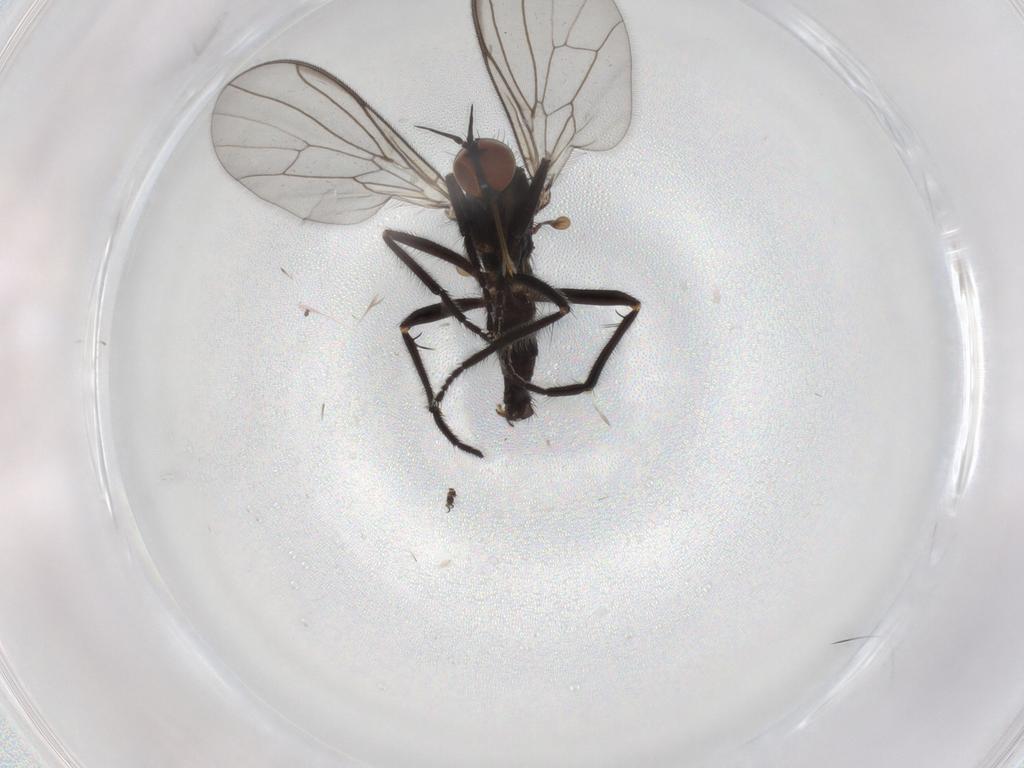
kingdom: Animalia
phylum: Arthropoda
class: Insecta
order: Diptera
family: Empididae
